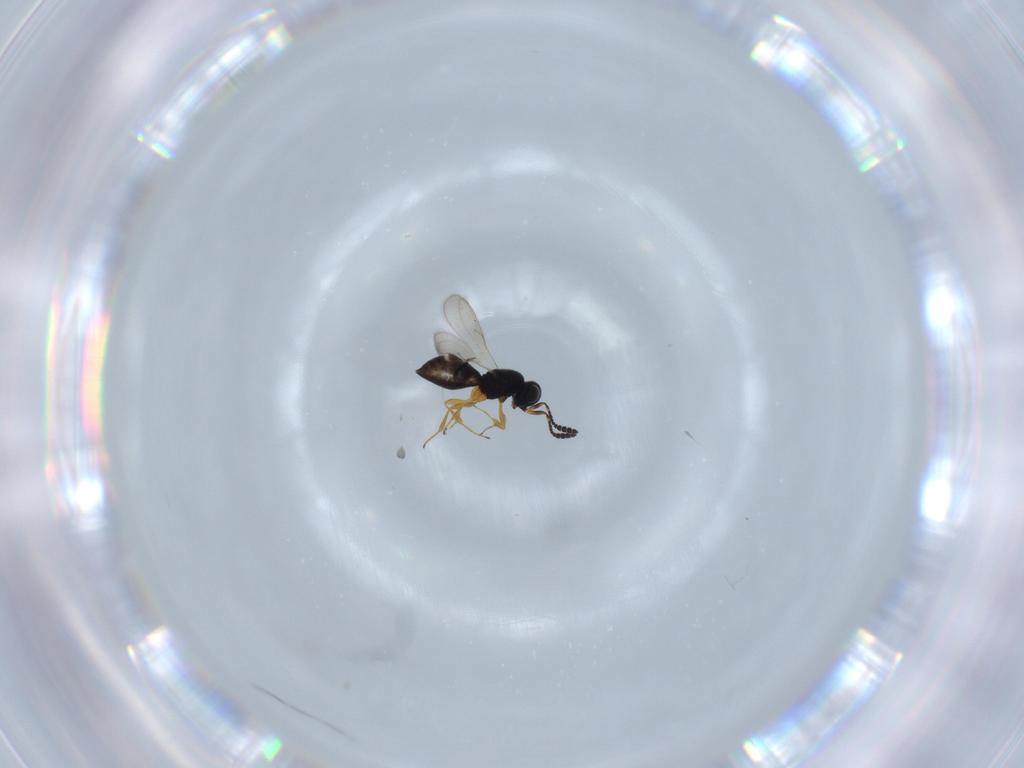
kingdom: Animalia
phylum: Arthropoda
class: Insecta
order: Hymenoptera
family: Scelionidae
